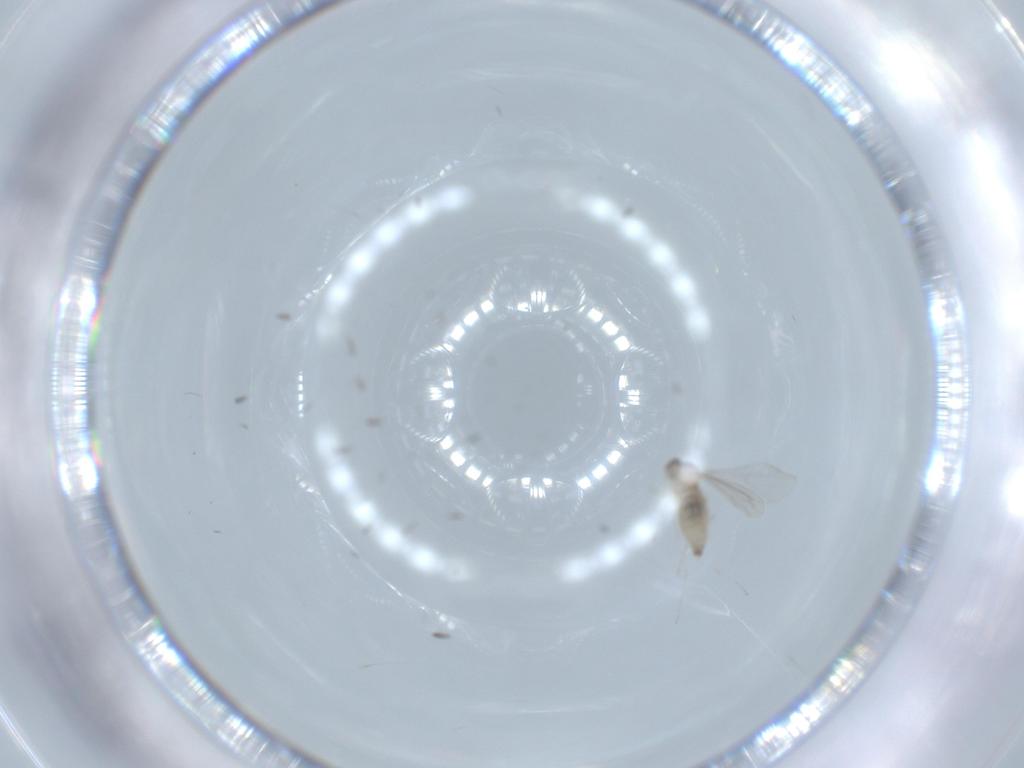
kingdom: Animalia
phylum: Arthropoda
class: Insecta
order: Diptera
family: Cecidomyiidae
